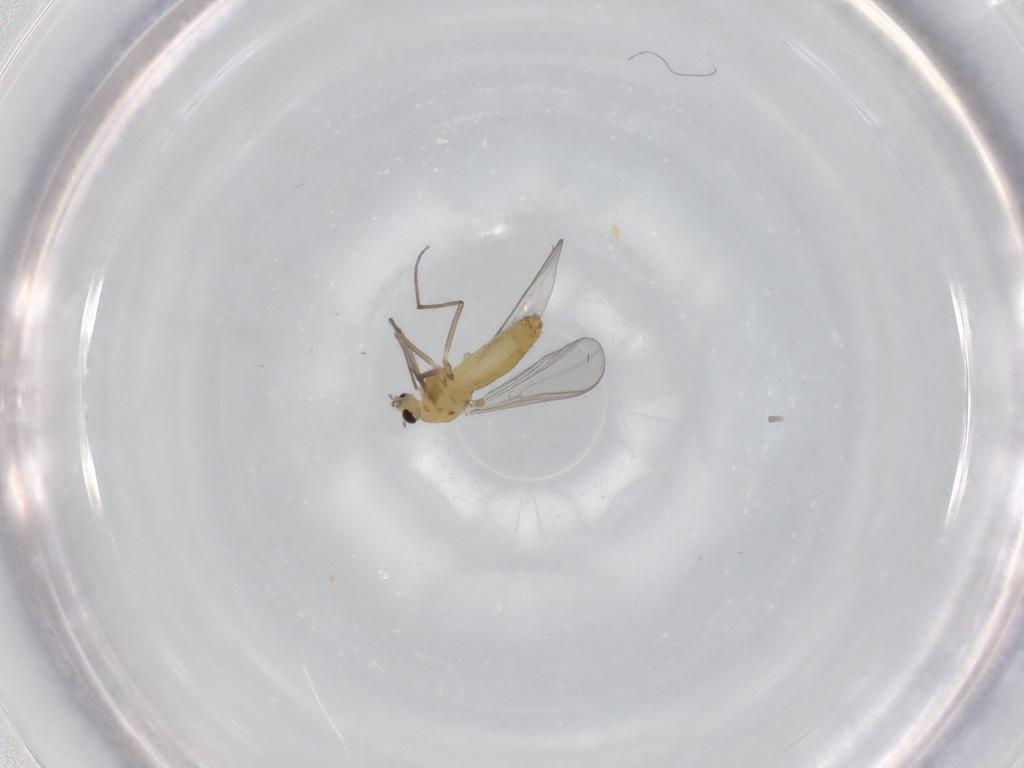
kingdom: Animalia
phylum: Arthropoda
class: Insecta
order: Diptera
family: Chironomidae
